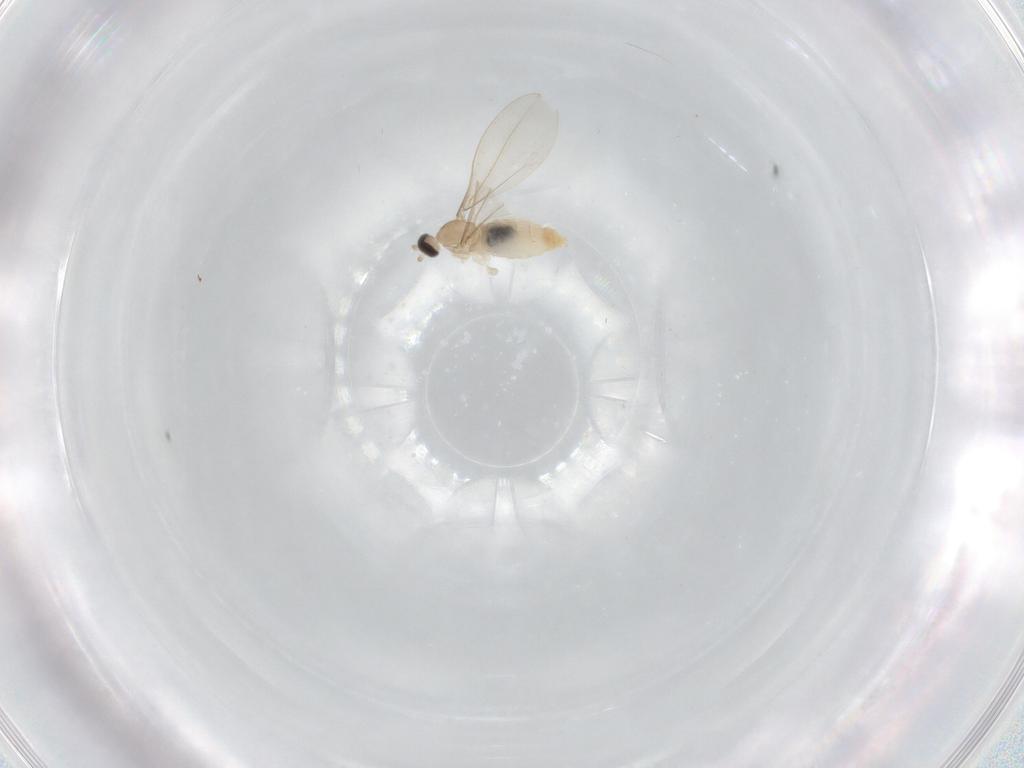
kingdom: Animalia
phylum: Arthropoda
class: Insecta
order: Diptera
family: Cecidomyiidae
